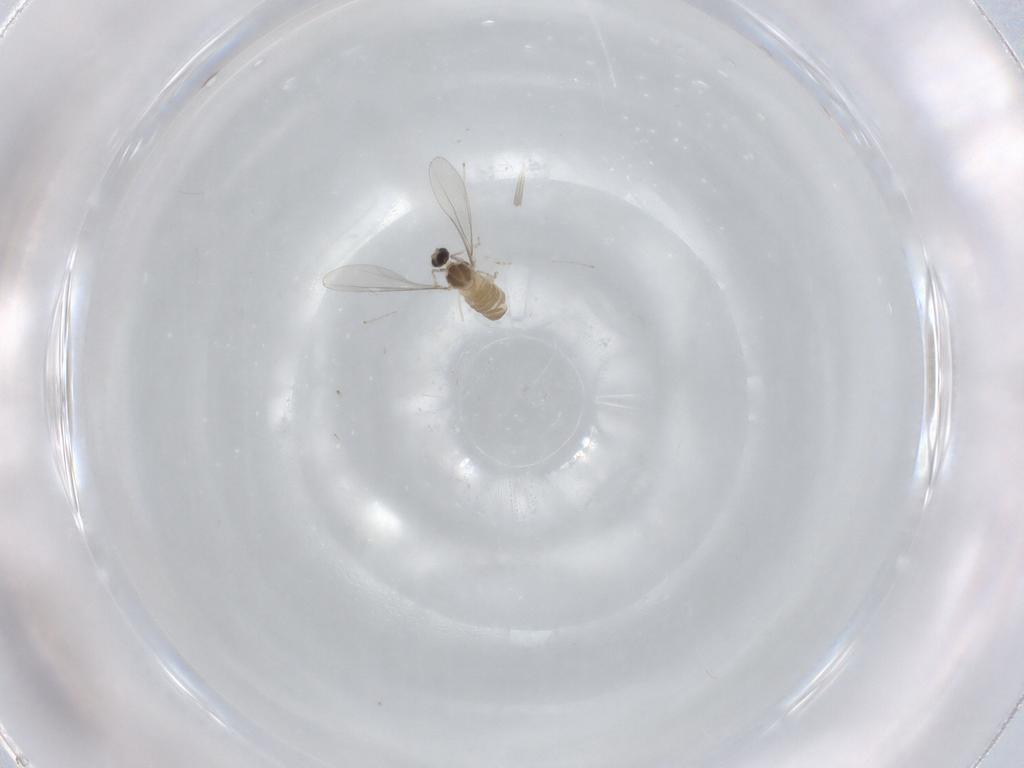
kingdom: Animalia
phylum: Arthropoda
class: Insecta
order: Diptera
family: Cecidomyiidae
